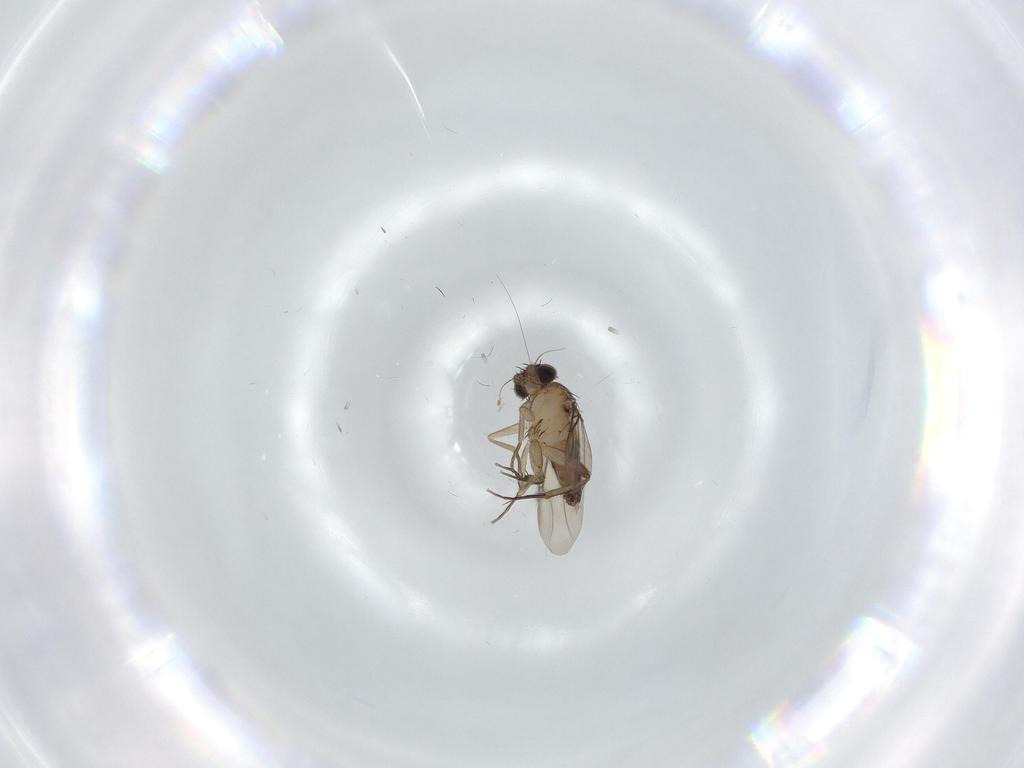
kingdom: Animalia
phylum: Arthropoda
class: Insecta
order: Diptera
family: Phoridae
